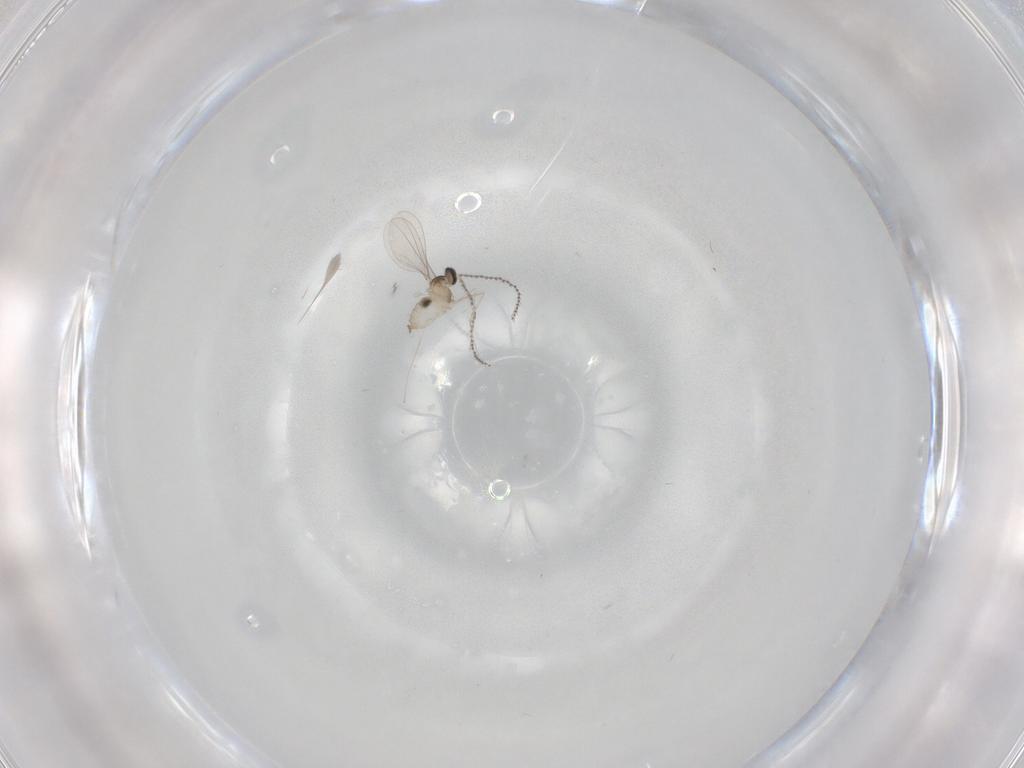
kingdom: Animalia
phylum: Arthropoda
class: Insecta
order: Diptera
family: Cecidomyiidae
